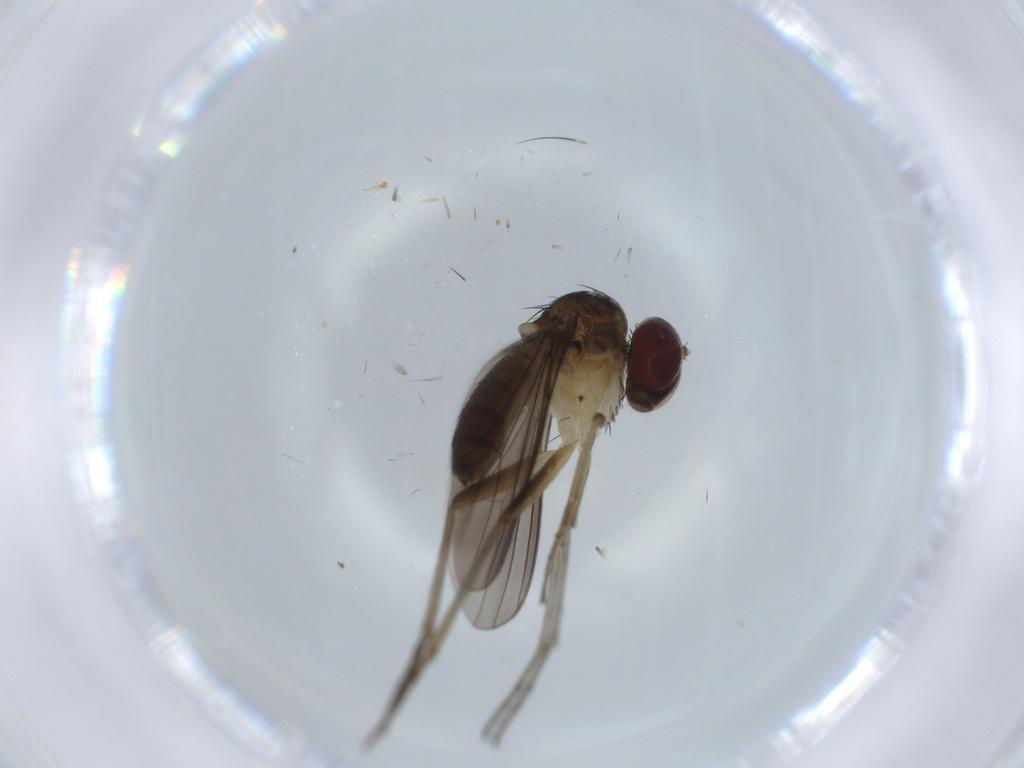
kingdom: Animalia
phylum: Arthropoda
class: Insecta
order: Diptera
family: Dolichopodidae
